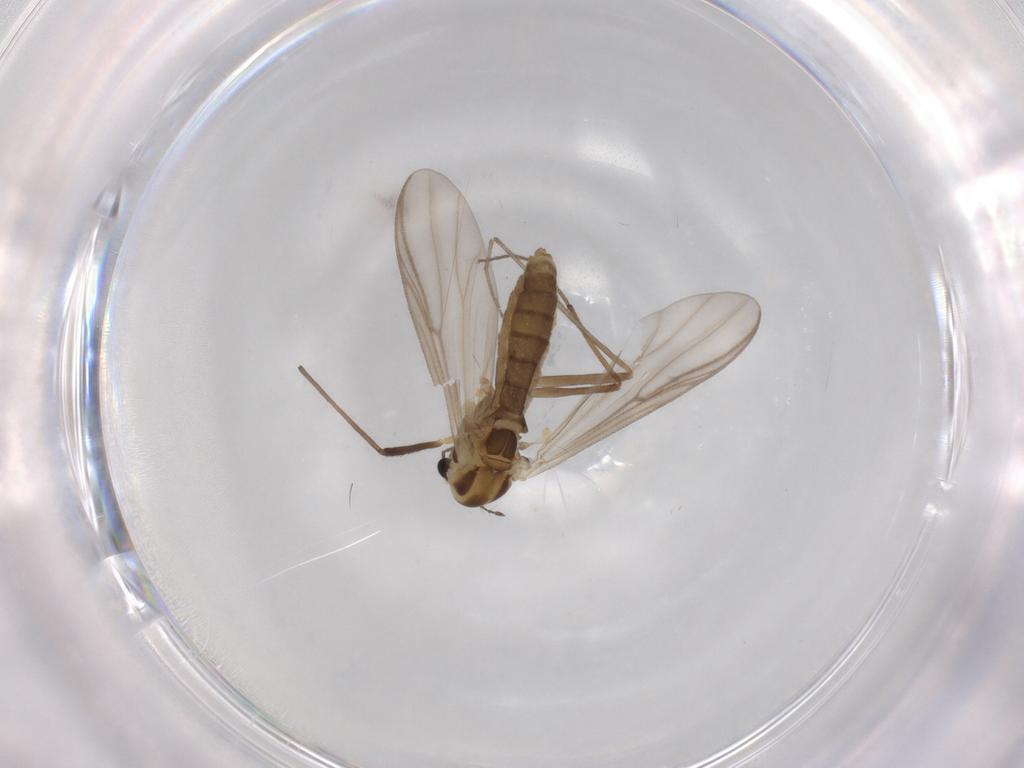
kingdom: Animalia
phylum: Arthropoda
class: Insecta
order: Diptera
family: Chironomidae
